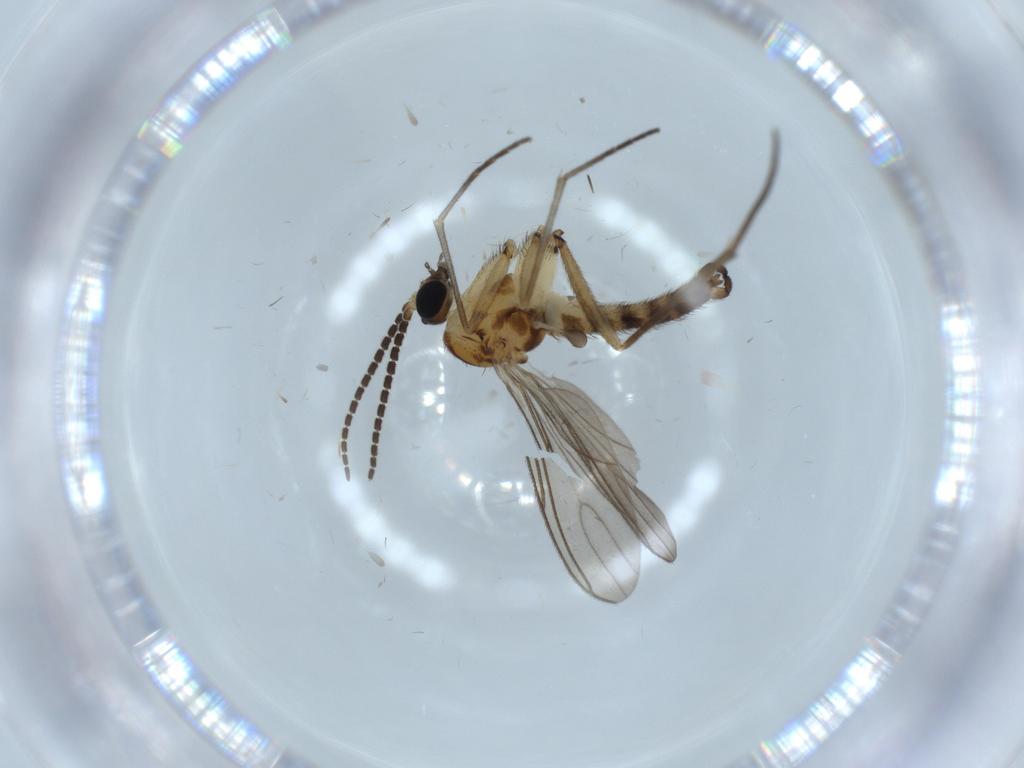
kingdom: Animalia
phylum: Arthropoda
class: Insecta
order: Diptera
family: Sciaridae
